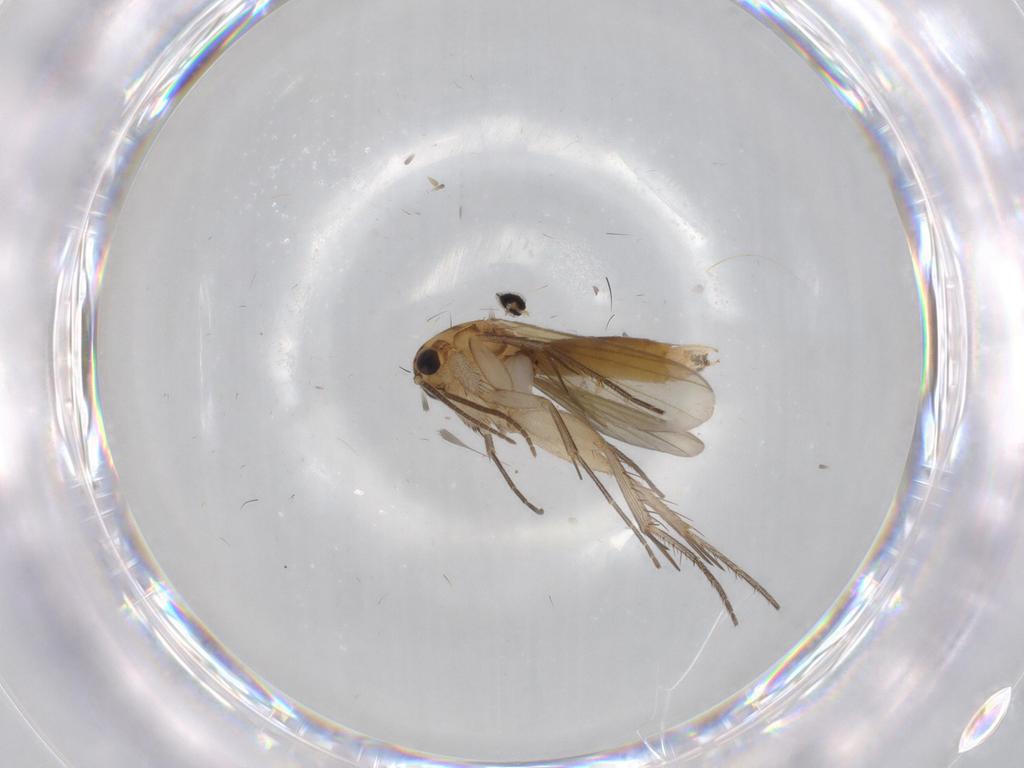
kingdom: Animalia
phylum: Arthropoda
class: Insecta
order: Diptera
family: Mycetophilidae
